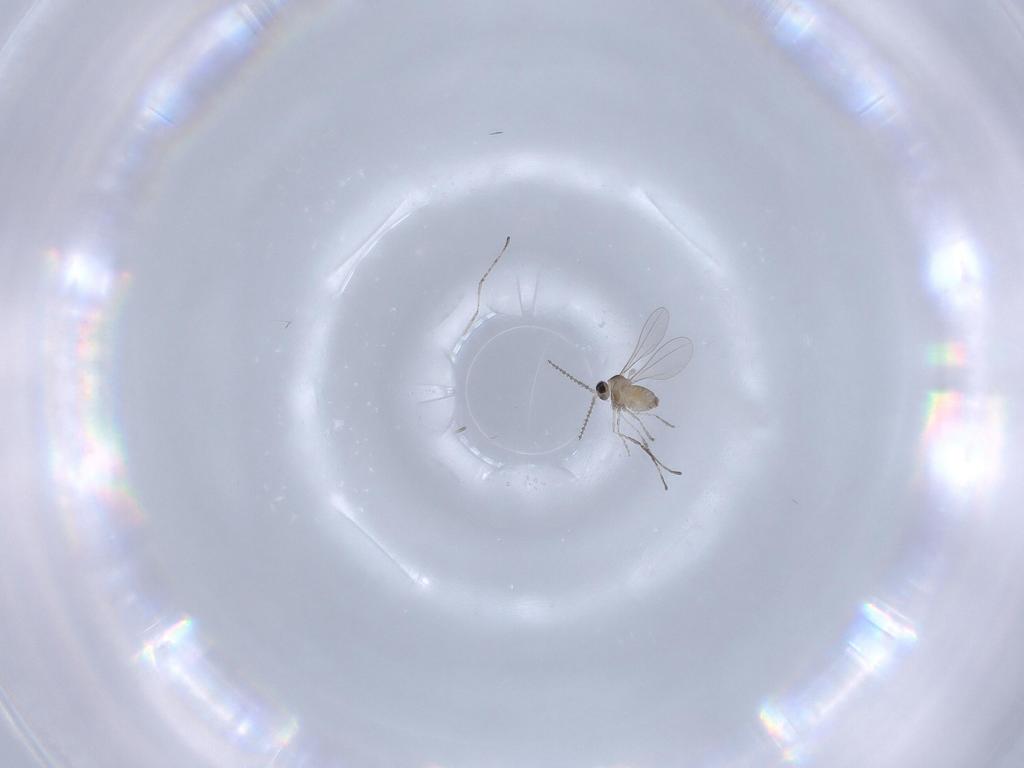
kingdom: Animalia
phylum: Arthropoda
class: Insecta
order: Diptera
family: Cecidomyiidae
